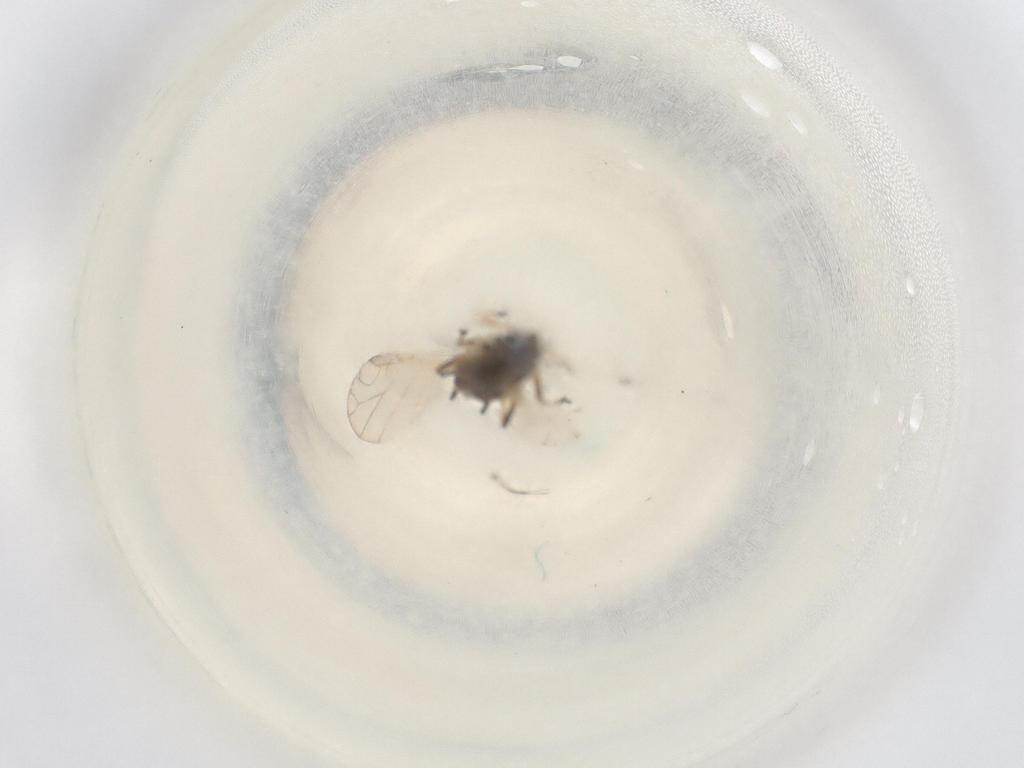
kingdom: Animalia
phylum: Arthropoda
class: Insecta
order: Hemiptera
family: Aphididae
